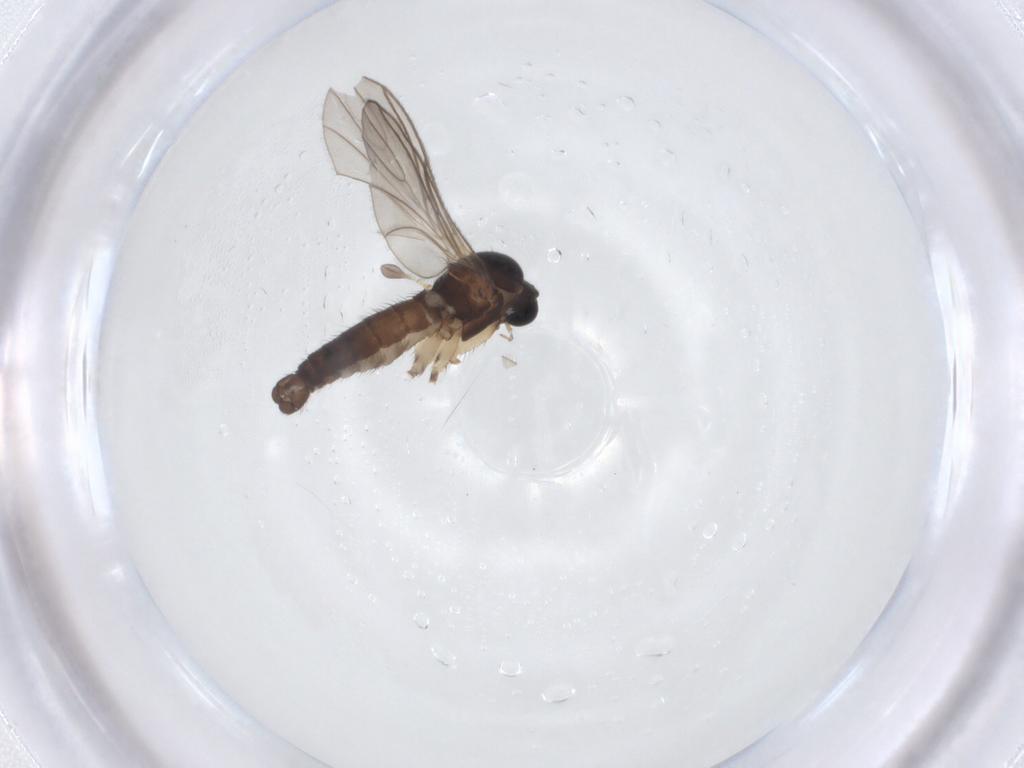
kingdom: Animalia
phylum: Arthropoda
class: Insecta
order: Diptera
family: Sciaridae
